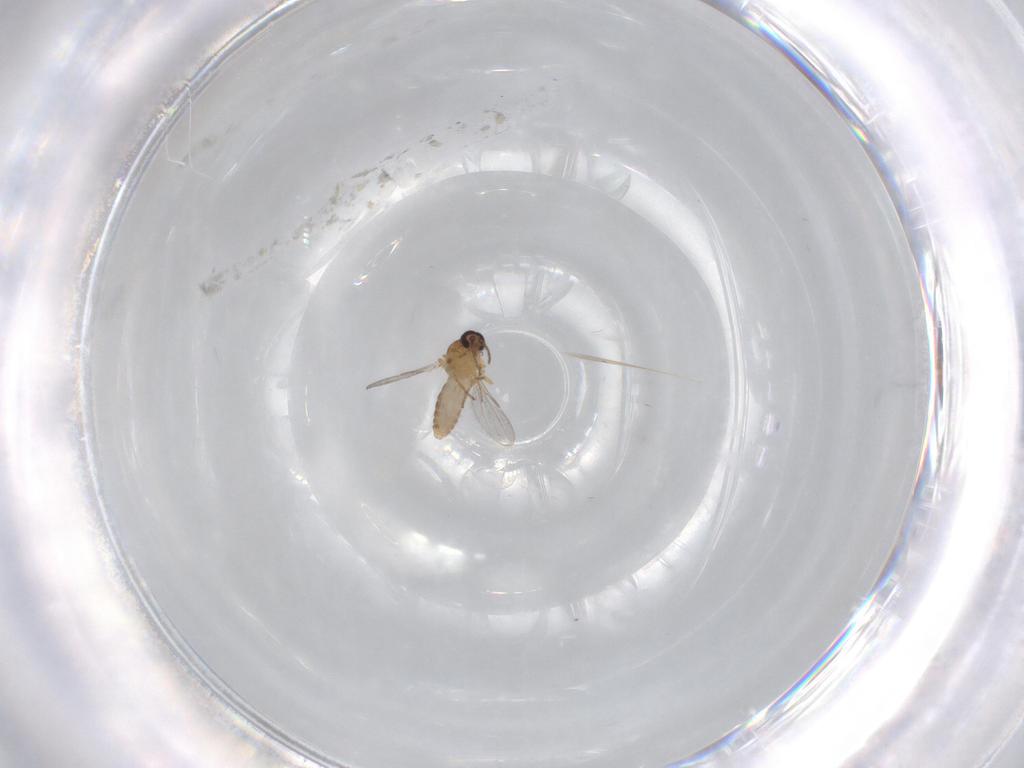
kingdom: Animalia
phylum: Arthropoda
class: Insecta
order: Diptera
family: Ceratopogonidae
